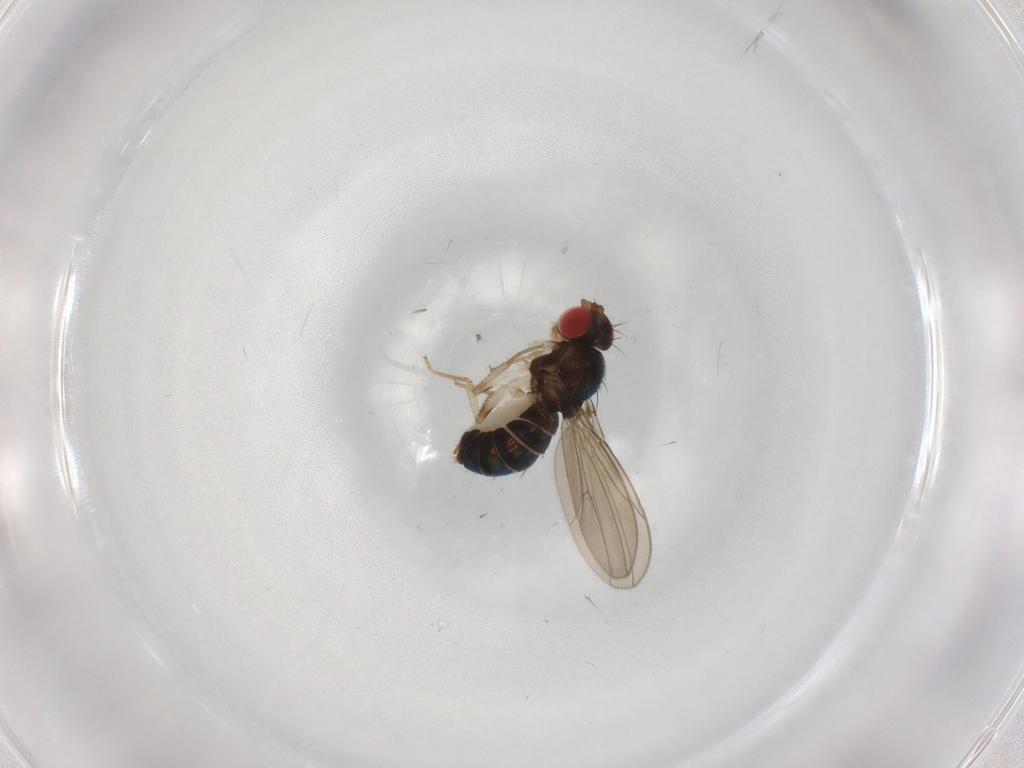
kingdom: Animalia
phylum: Arthropoda
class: Insecta
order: Diptera
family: Drosophilidae
